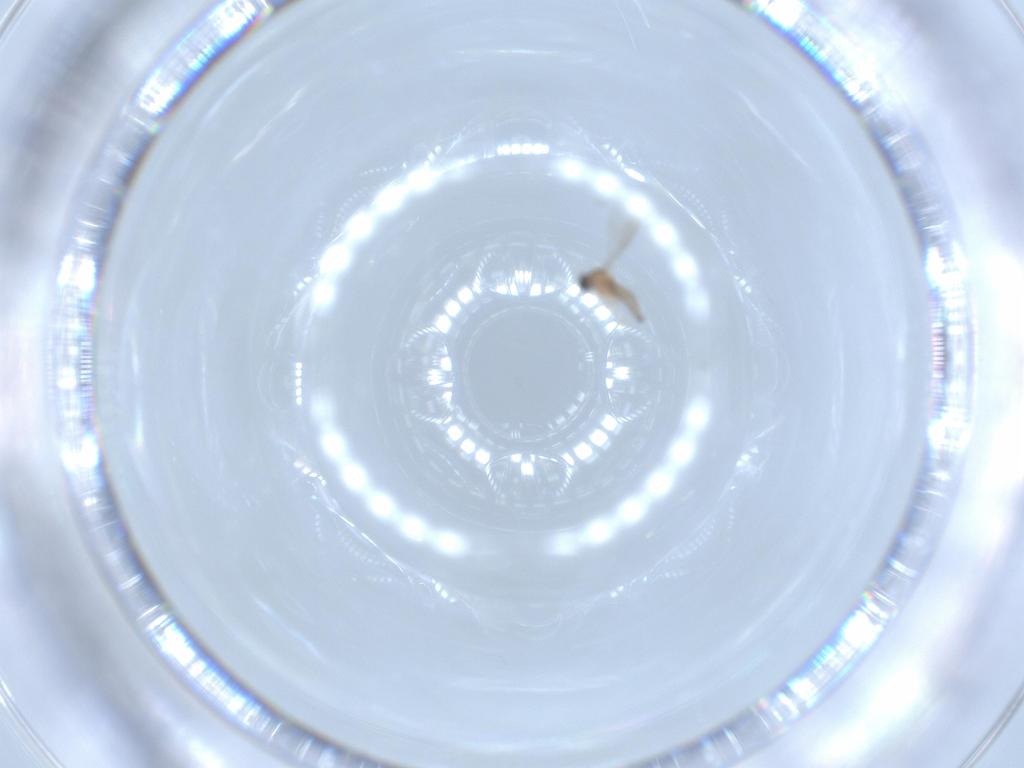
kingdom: Animalia
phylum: Arthropoda
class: Insecta
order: Diptera
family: Cecidomyiidae
